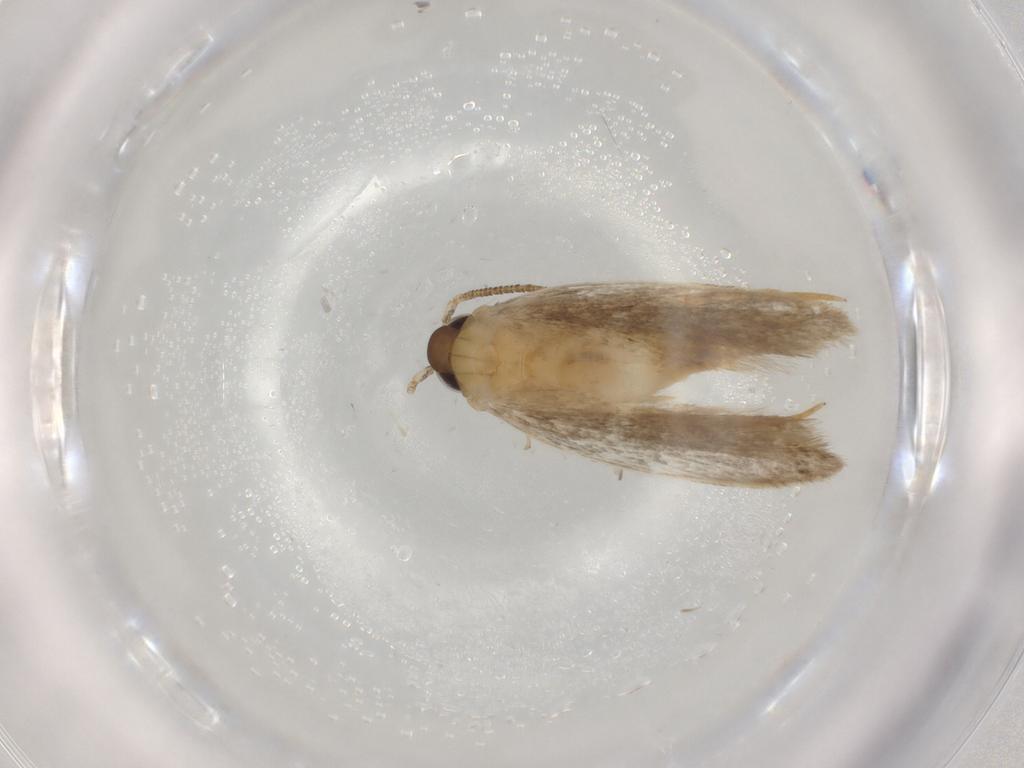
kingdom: Animalia
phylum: Arthropoda
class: Insecta
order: Lepidoptera
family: Autostichidae
